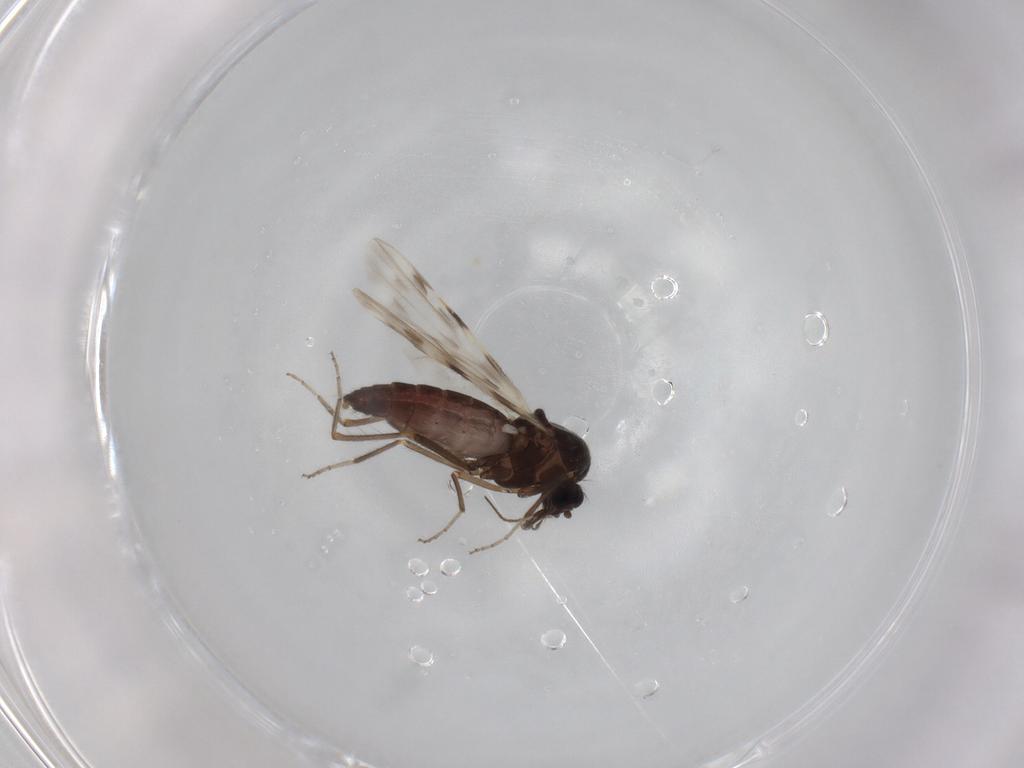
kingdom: Animalia
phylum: Arthropoda
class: Insecta
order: Diptera
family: Ceratopogonidae
